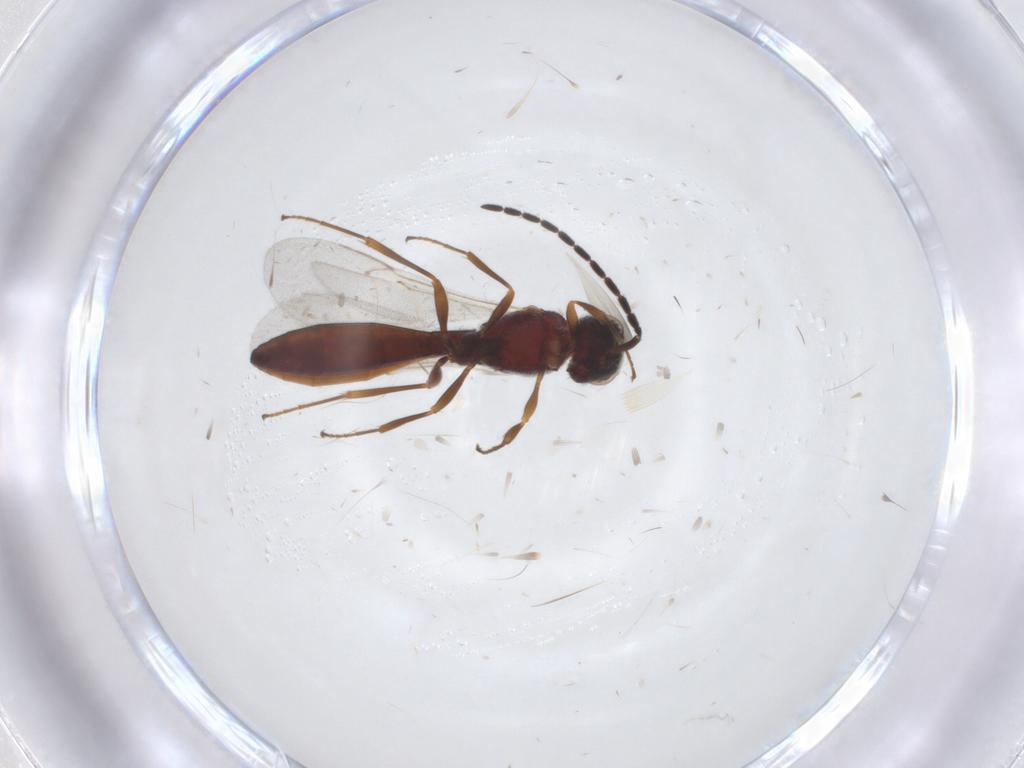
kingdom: Animalia
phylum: Arthropoda
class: Insecta
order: Hymenoptera
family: Scelionidae
